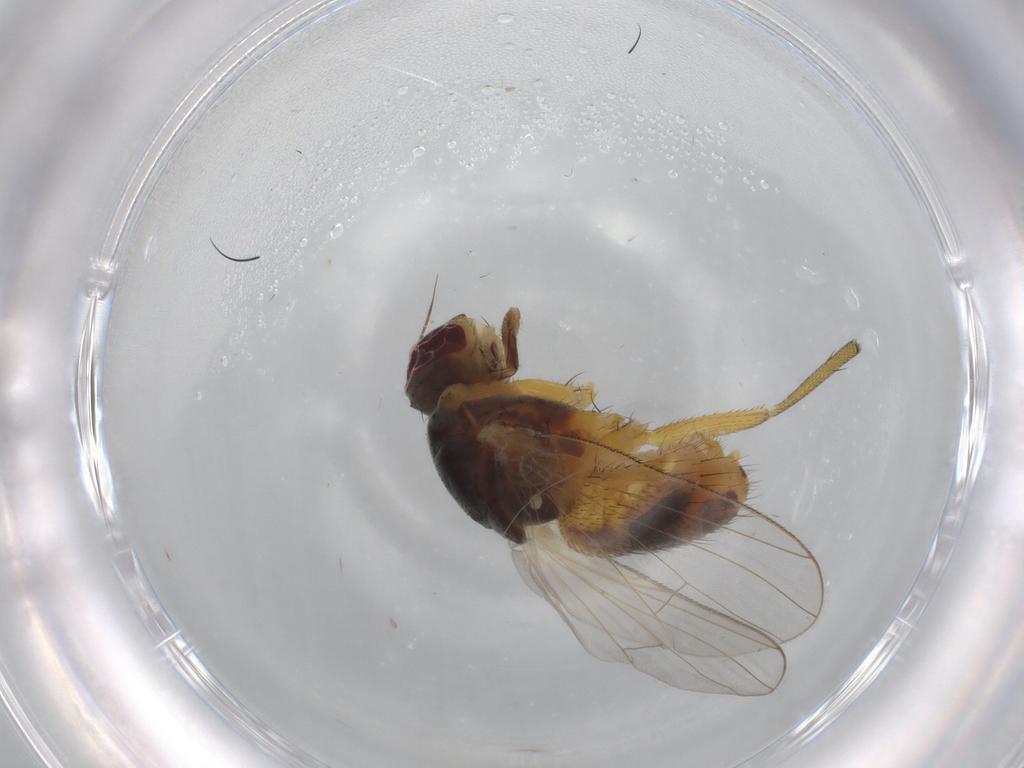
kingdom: Animalia
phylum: Arthropoda
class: Insecta
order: Diptera
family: Muscidae
